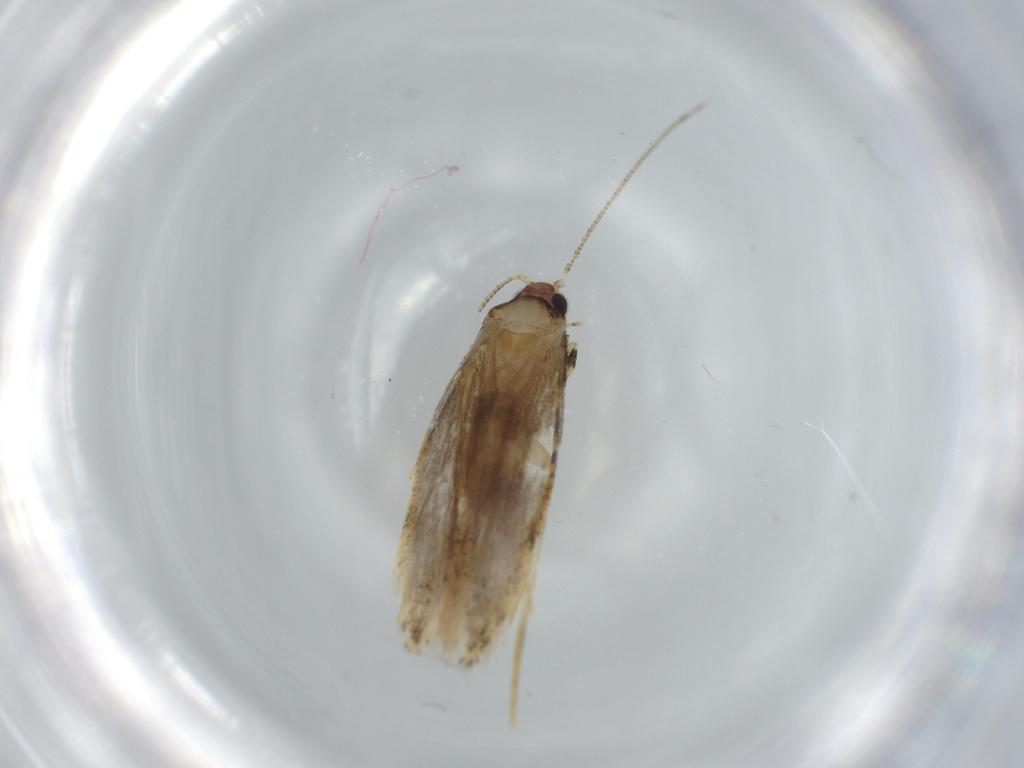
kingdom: Animalia
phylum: Arthropoda
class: Insecta
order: Lepidoptera
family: Tineidae
